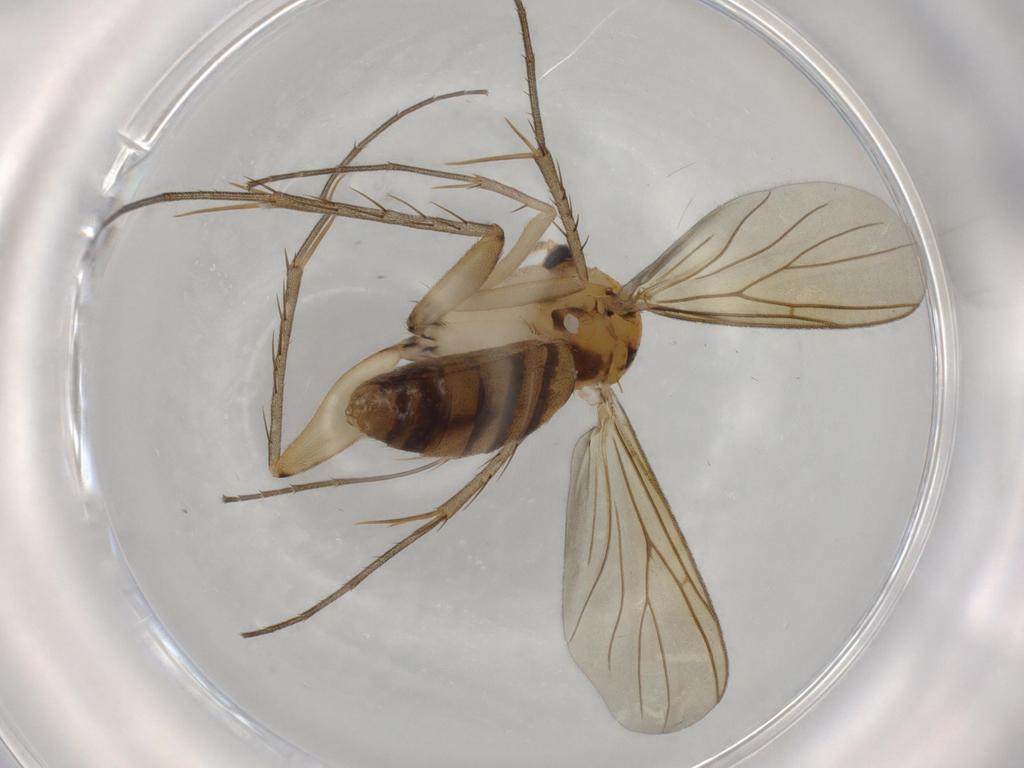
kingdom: Animalia
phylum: Arthropoda
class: Insecta
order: Diptera
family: Mycetophilidae
